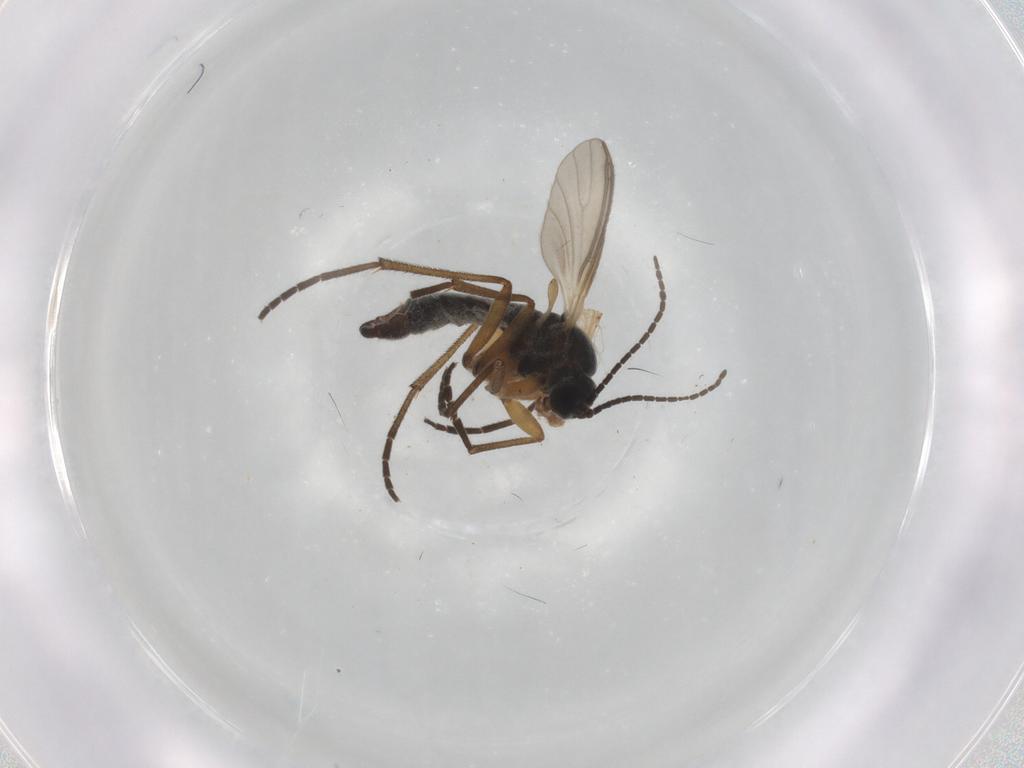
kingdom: Animalia
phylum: Arthropoda
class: Insecta
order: Diptera
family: Sciaridae
